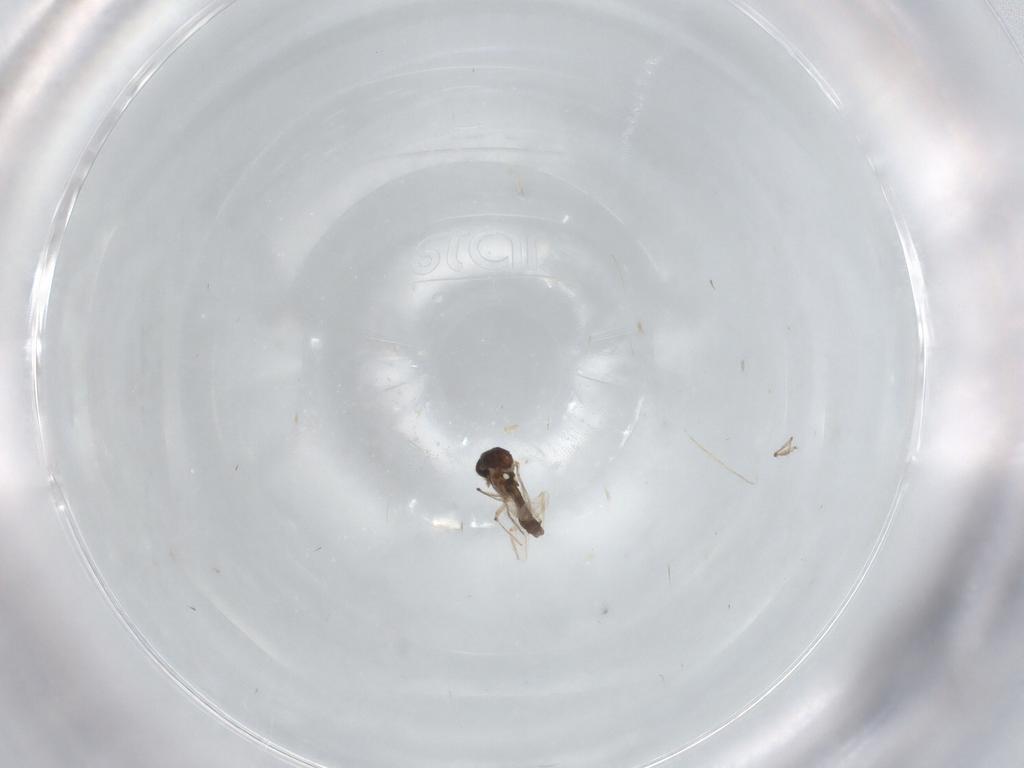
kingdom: Animalia
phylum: Arthropoda
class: Insecta
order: Diptera
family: Ceratopogonidae
